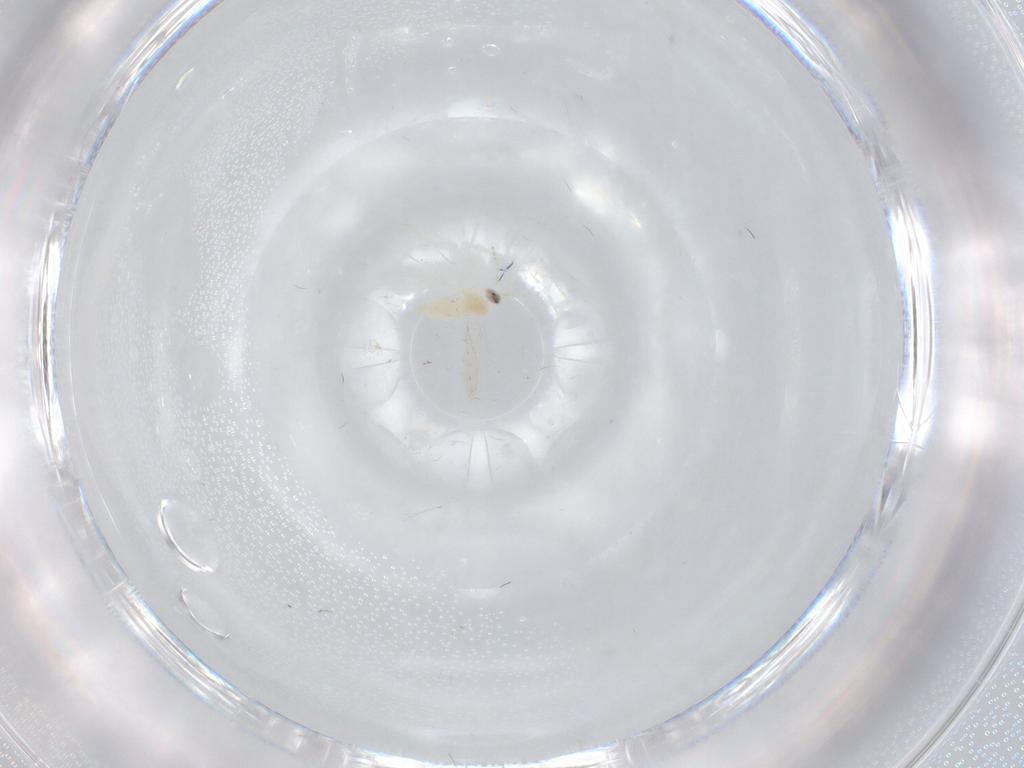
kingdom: Animalia
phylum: Arthropoda
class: Insecta
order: Diptera
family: Cecidomyiidae
